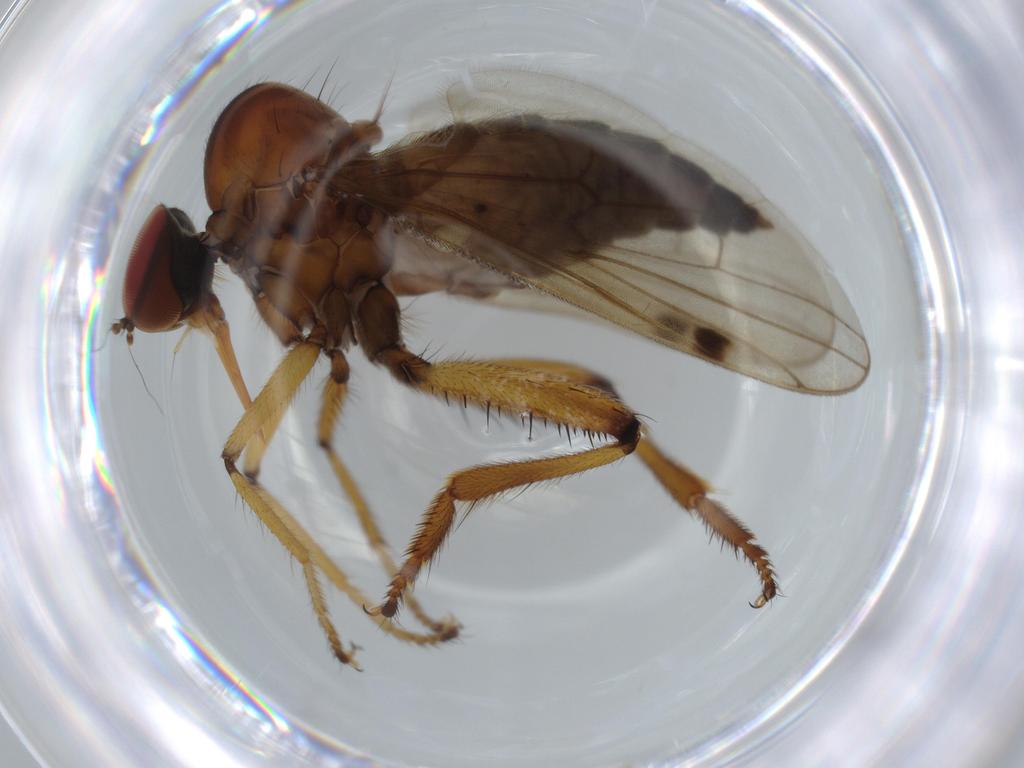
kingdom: Animalia
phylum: Arthropoda
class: Insecta
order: Diptera
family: Hybotidae
